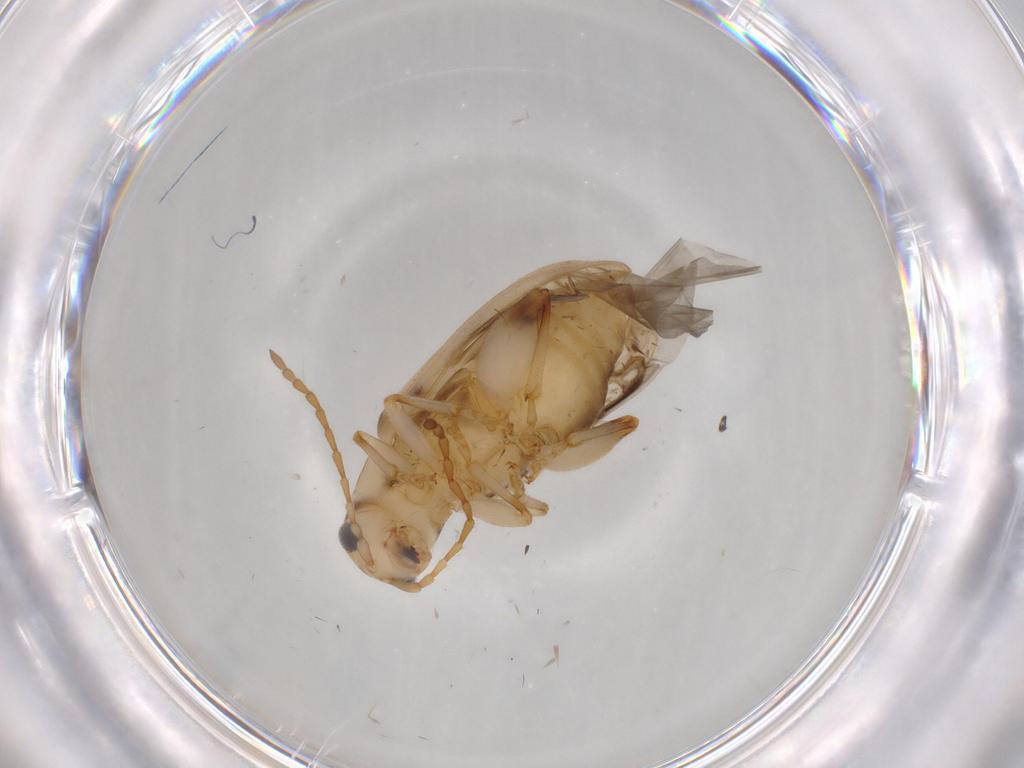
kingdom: Animalia
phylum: Arthropoda
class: Insecta
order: Coleoptera
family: Chrysomelidae
